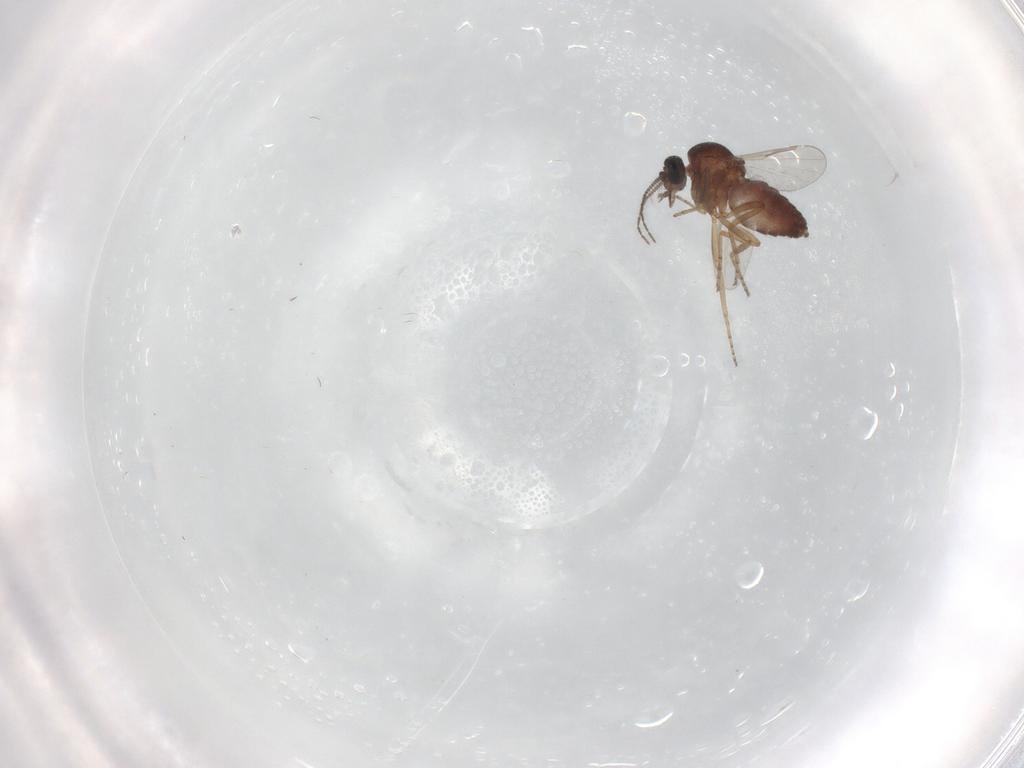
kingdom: Animalia
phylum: Arthropoda
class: Insecta
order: Diptera
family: Ceratopogonidae
